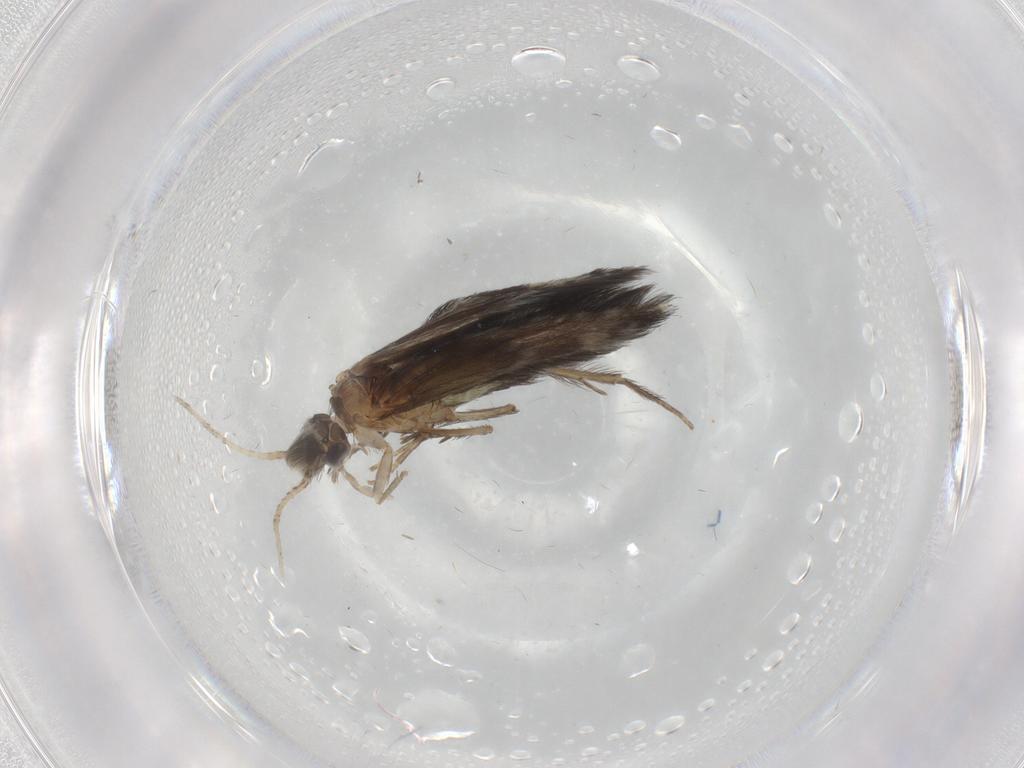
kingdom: Animalia
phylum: Arthropoda
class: Insecta
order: Trichoptera
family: Hydroptilidae
